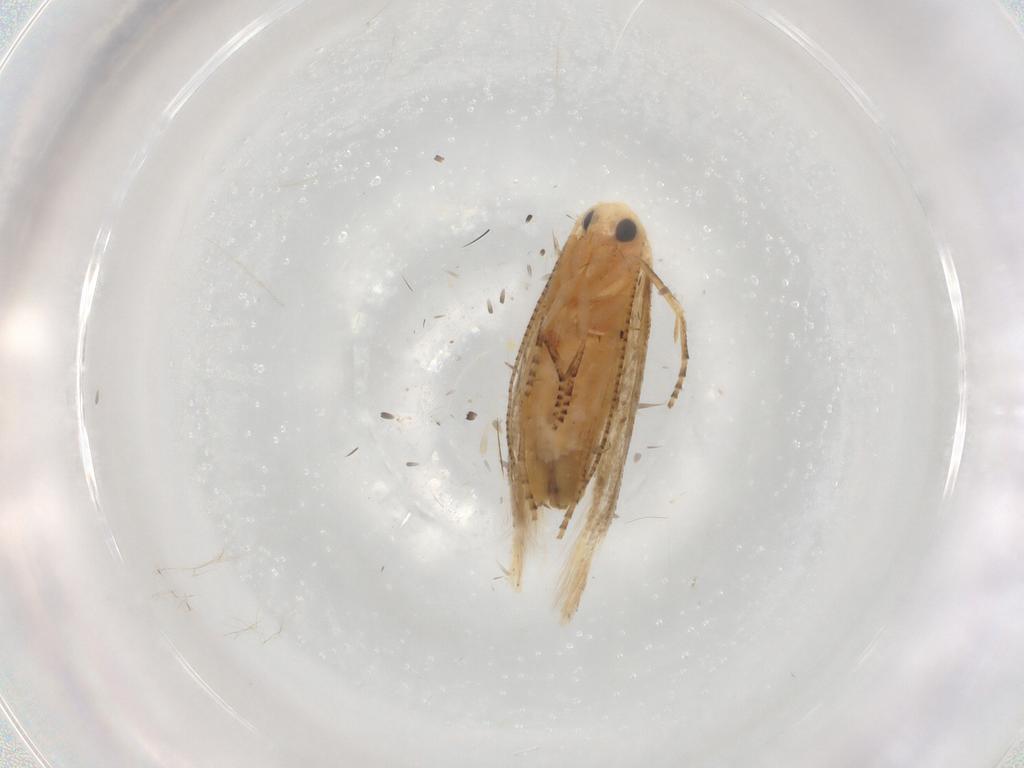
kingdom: Animalia
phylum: Arthropoda
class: Insecta
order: Lepidoptera
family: Bucculatricidae
